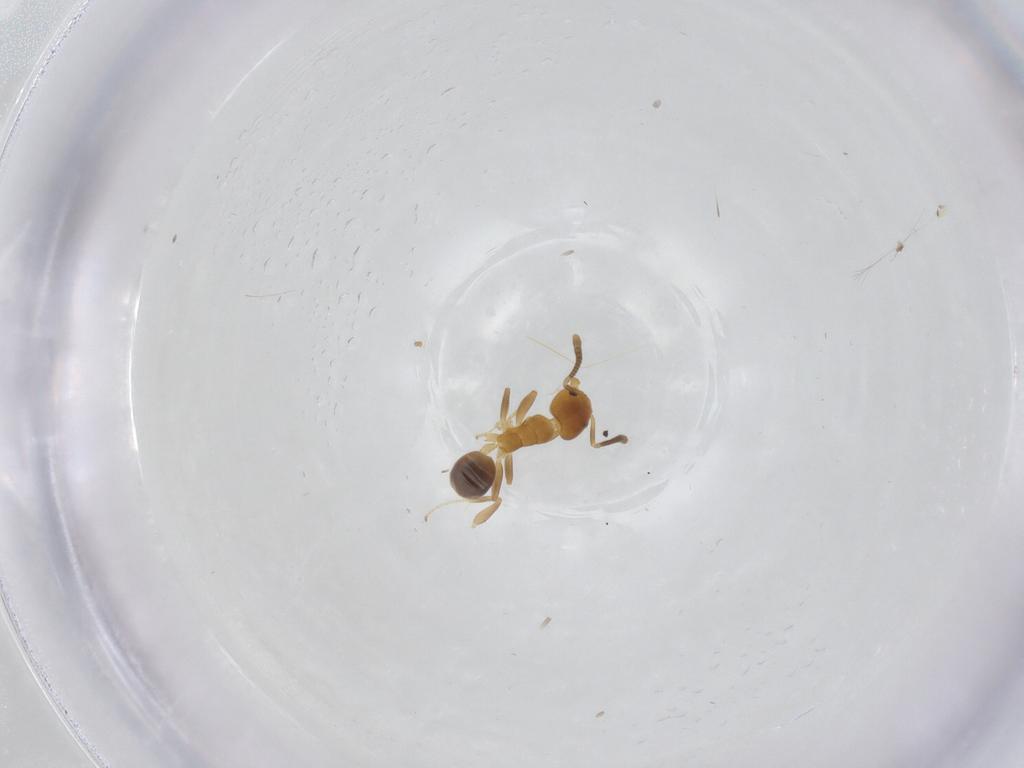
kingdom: Animalia
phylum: Arthropoda
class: Insecta
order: Hymenoptera
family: Formicidae
